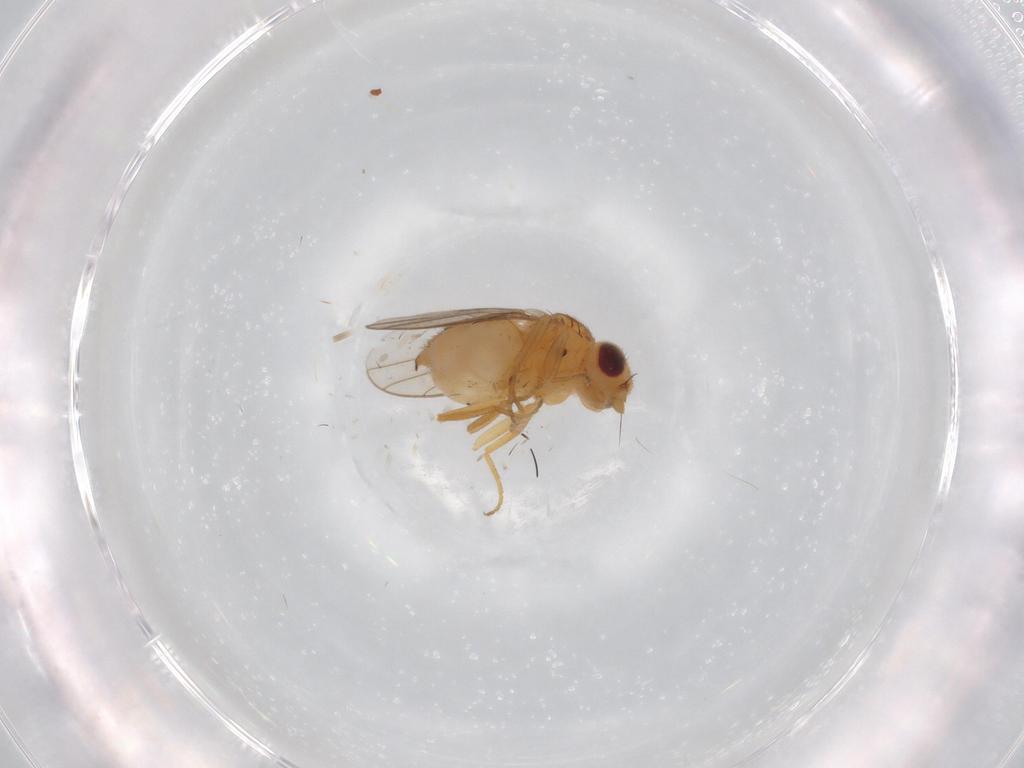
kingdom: Animalia
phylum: Arthropoda
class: Insecta
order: Diptera
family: Chloropidae
